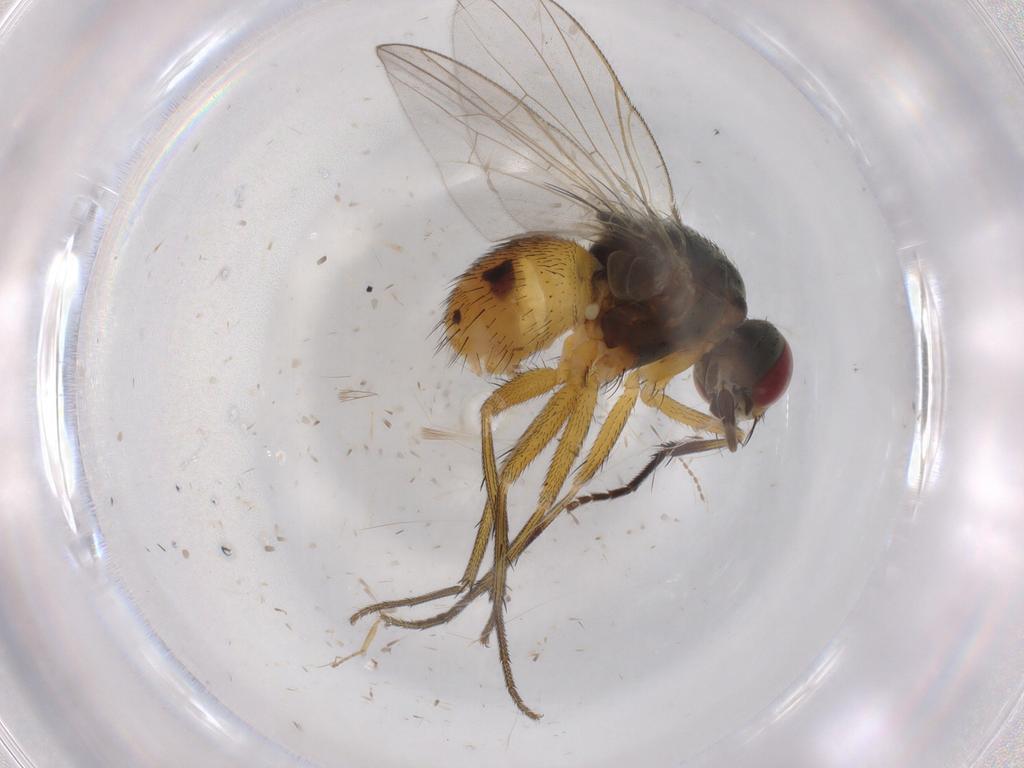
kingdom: Animalia
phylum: Arthropoda
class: Insecta
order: Diptera
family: Muscidae
